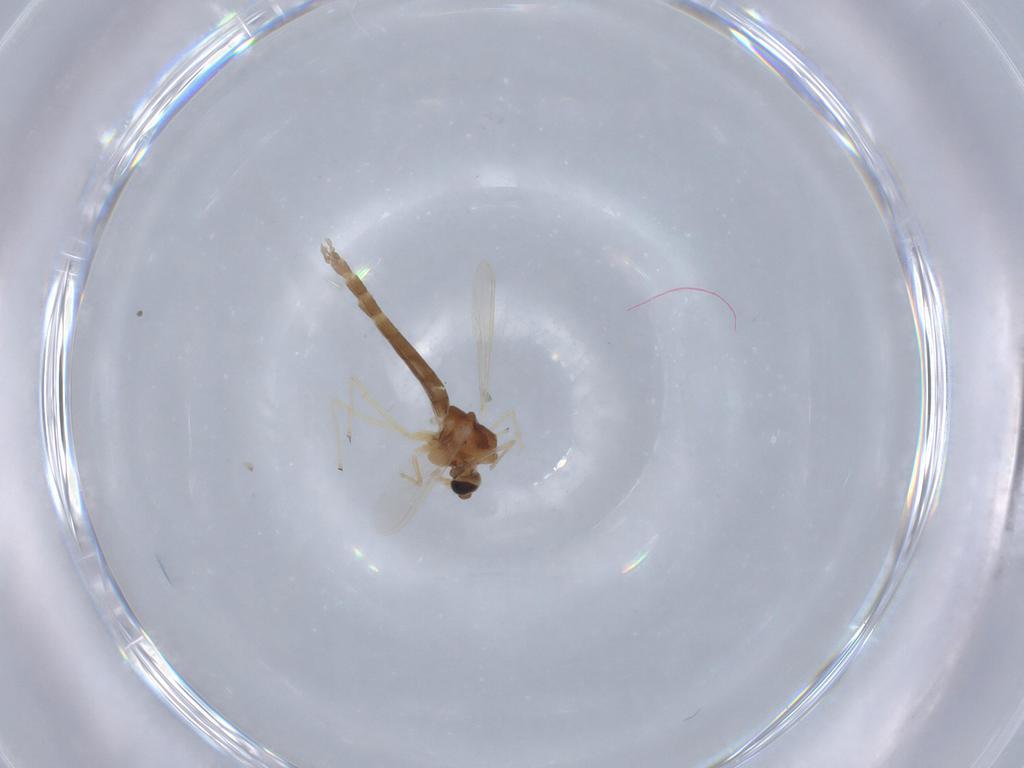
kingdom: Animalia
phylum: Arthropoda
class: Insecta
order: Diptera
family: Chironomidae
